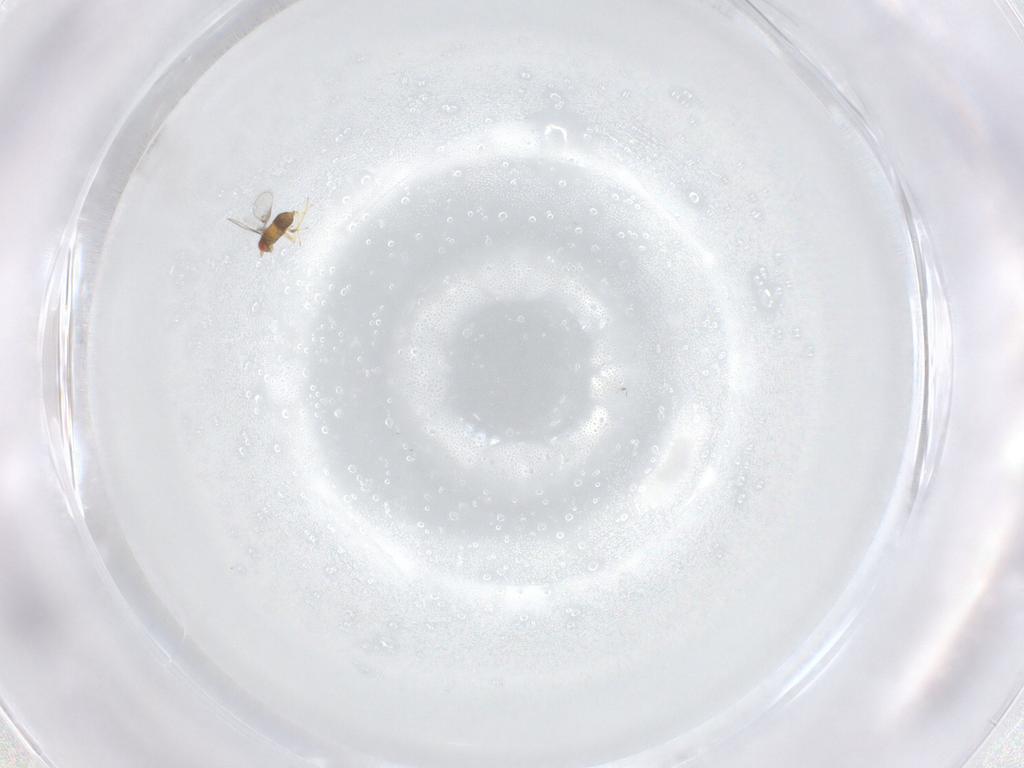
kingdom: Animalia
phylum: Arthropoda
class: Insecta
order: Hymenoptera
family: Trichogrammatidae
